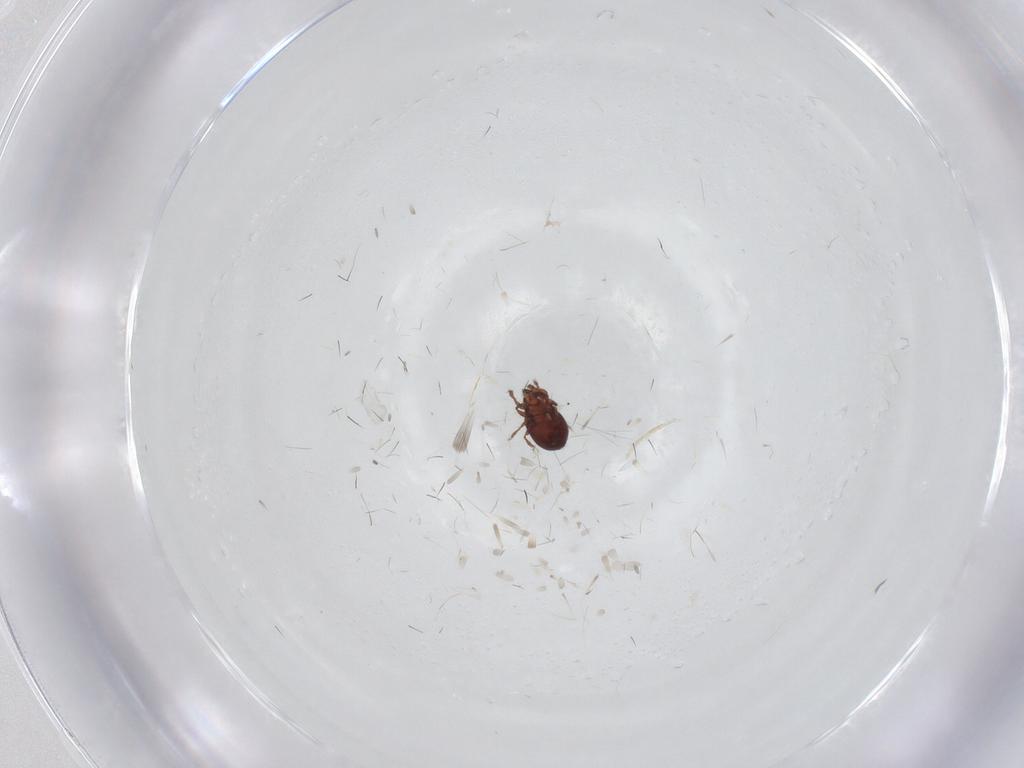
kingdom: Animalia
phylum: Arthropoda
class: Arachnida
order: Sarcoptiformes
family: Achipteriidae
